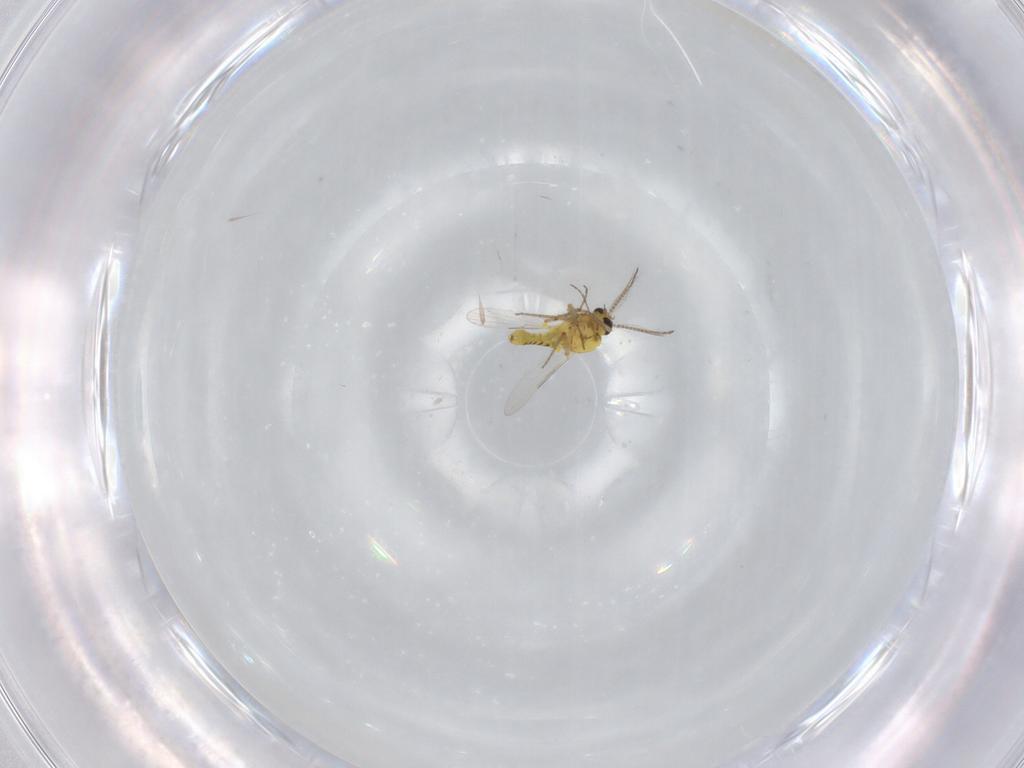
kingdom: Animalia
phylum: Arthropoda
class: Insecta
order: Diptera
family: Ceratopogonidae
